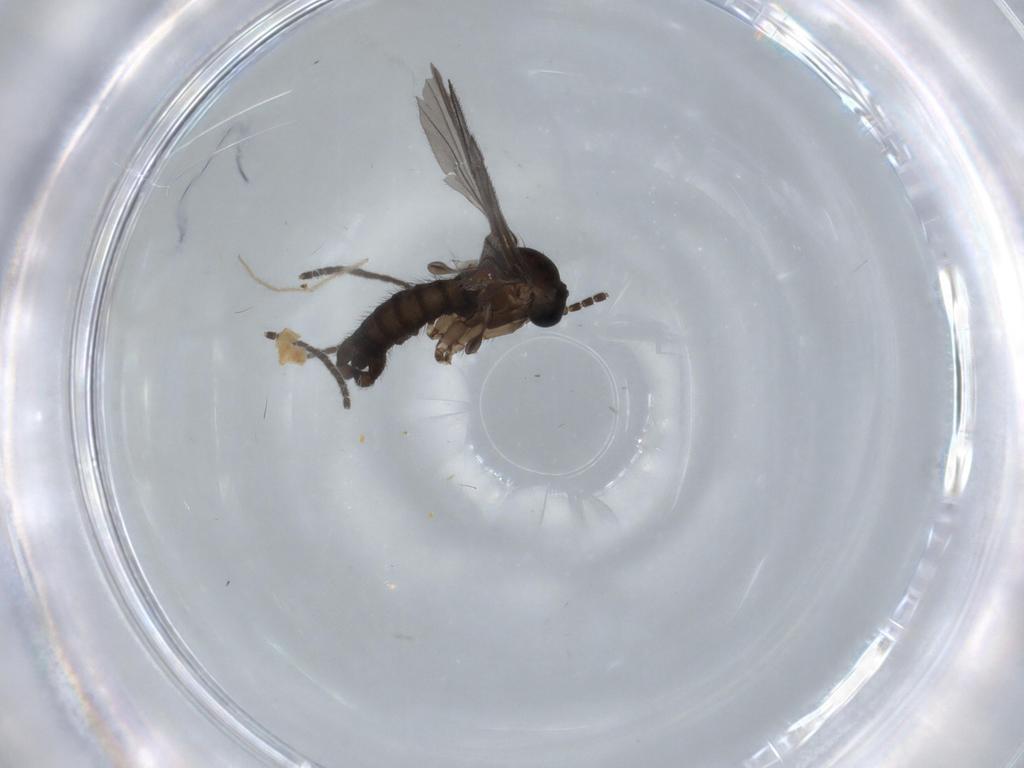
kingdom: Animalia
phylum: Arthropoda
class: Insecta
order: Diptera
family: Sciaridae
